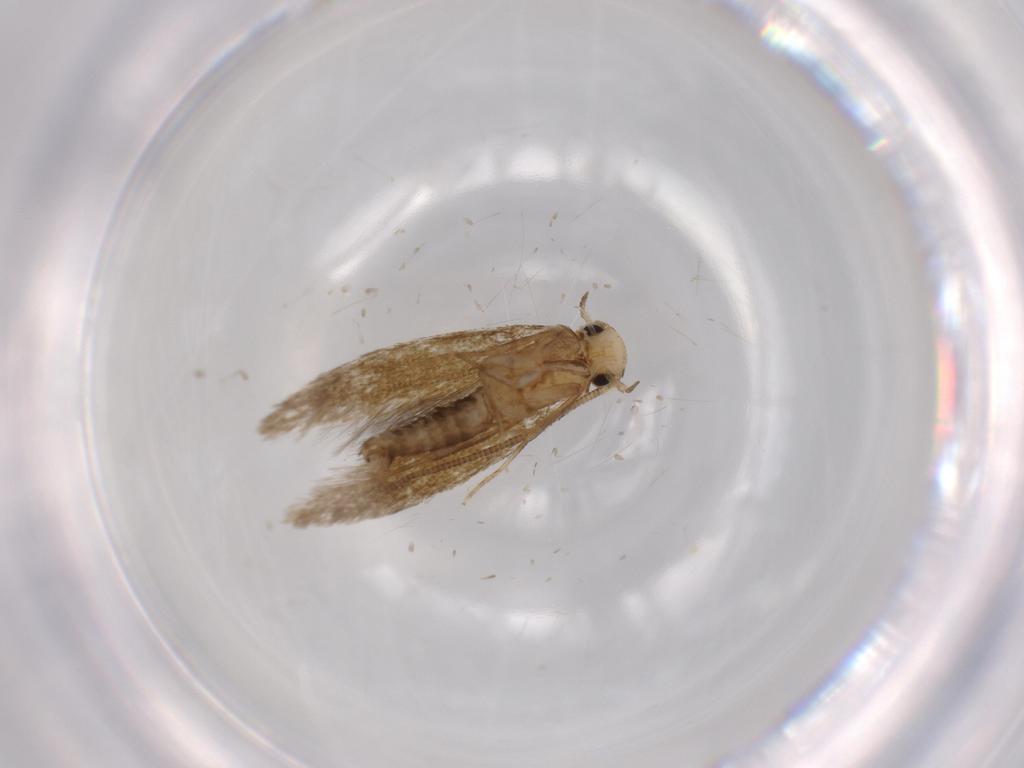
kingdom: Animalia
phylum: Arthropoda
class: Insecta
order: Lepidoptera
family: Tineidae
